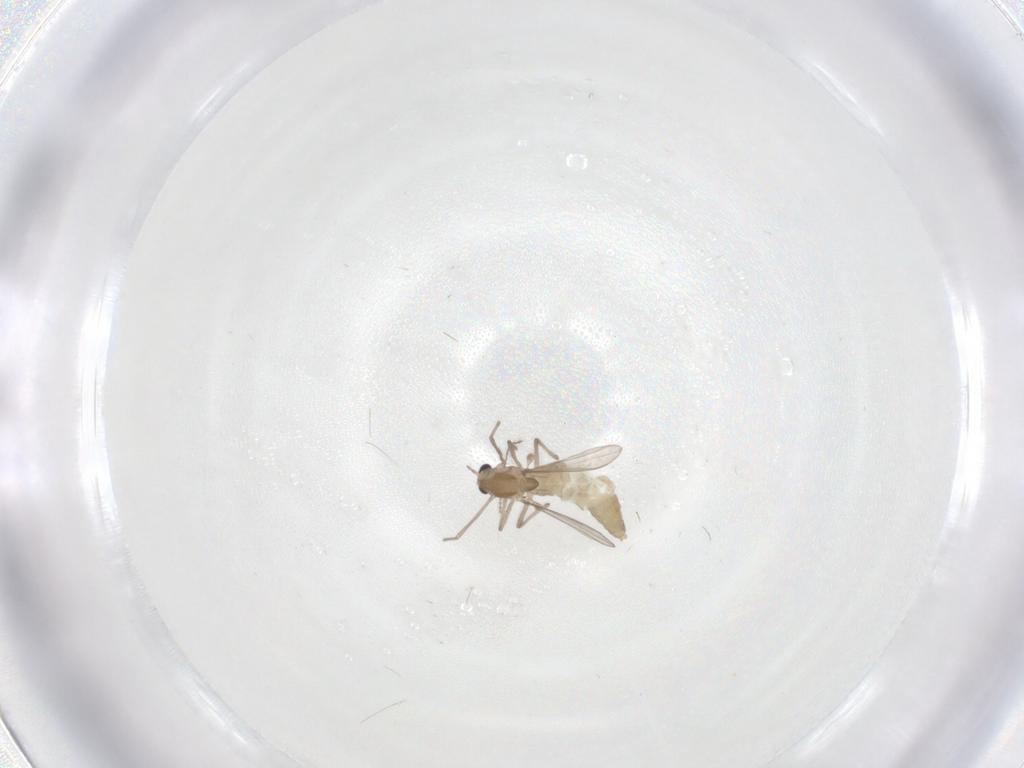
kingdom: Animalia
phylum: Arthropoda
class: Insecta
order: Diptera
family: Chironomidae
